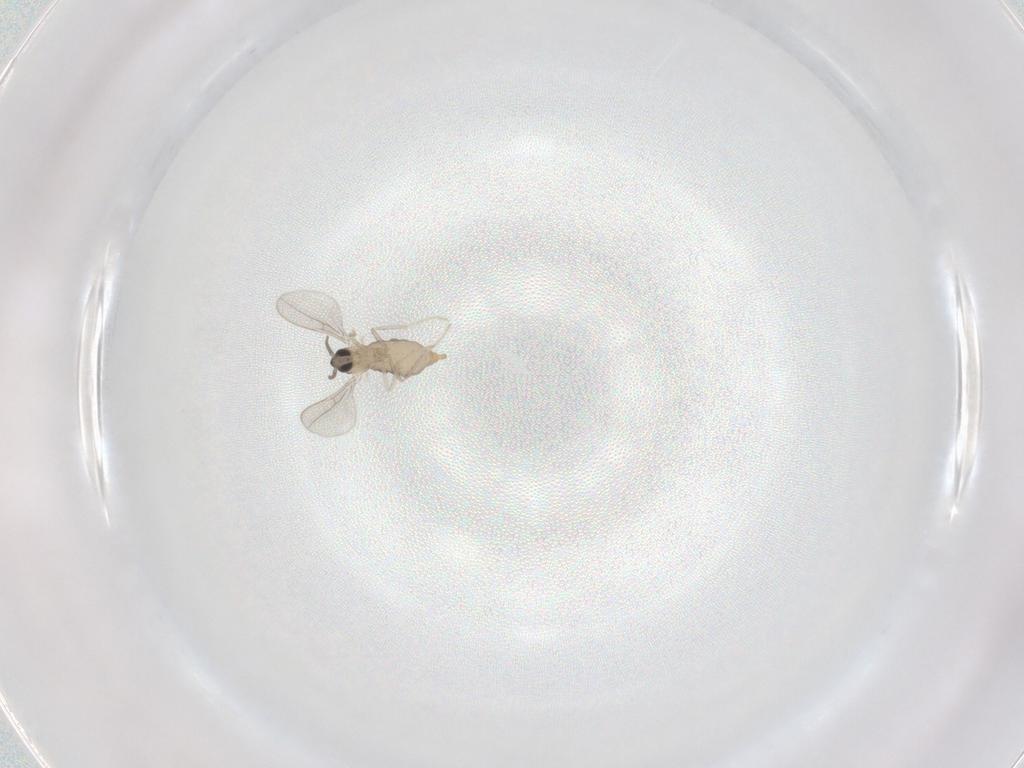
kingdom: Animalia
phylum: Arthropoda
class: Insecta
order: Diptera
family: Cecidomyiidae
